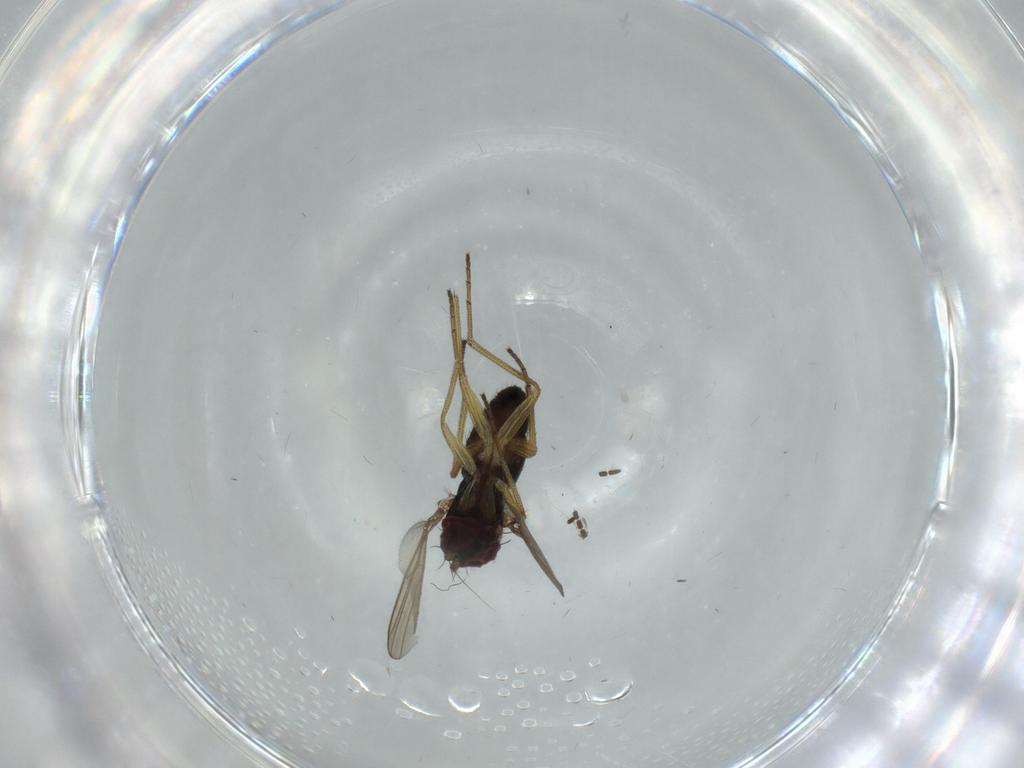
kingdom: Animalia
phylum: Arthropoda
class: Insecta
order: Diptera
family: Phoridae
